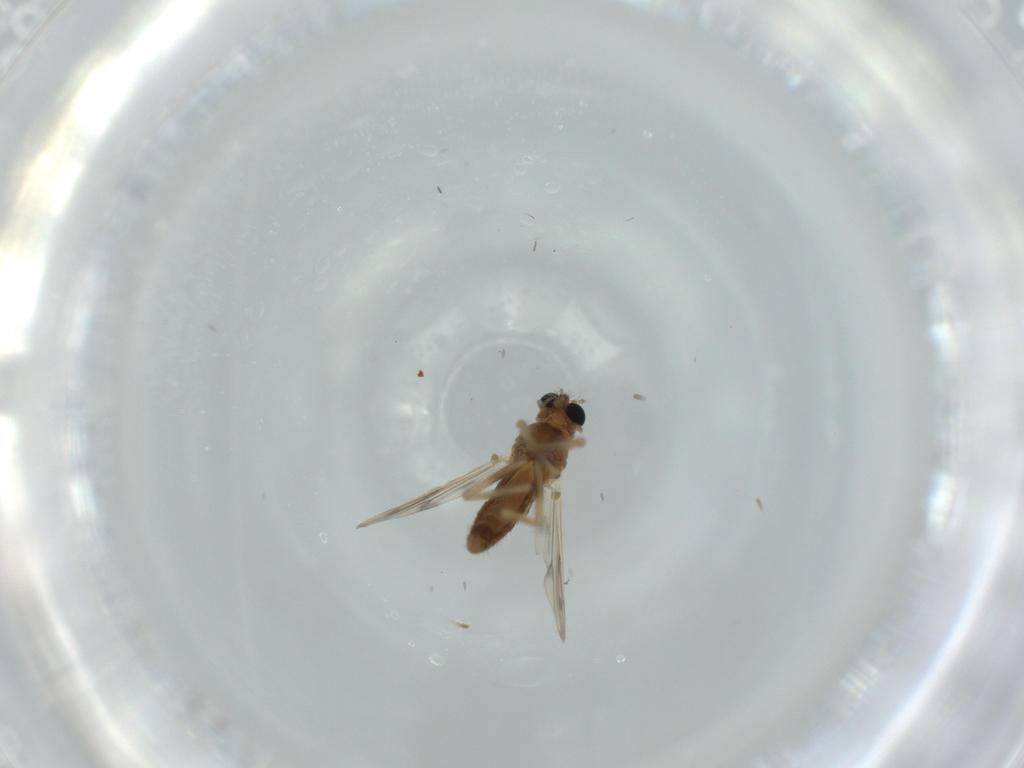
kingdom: Animalia
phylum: Arthropoda
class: Insecta
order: Diptera
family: Chironomidae
